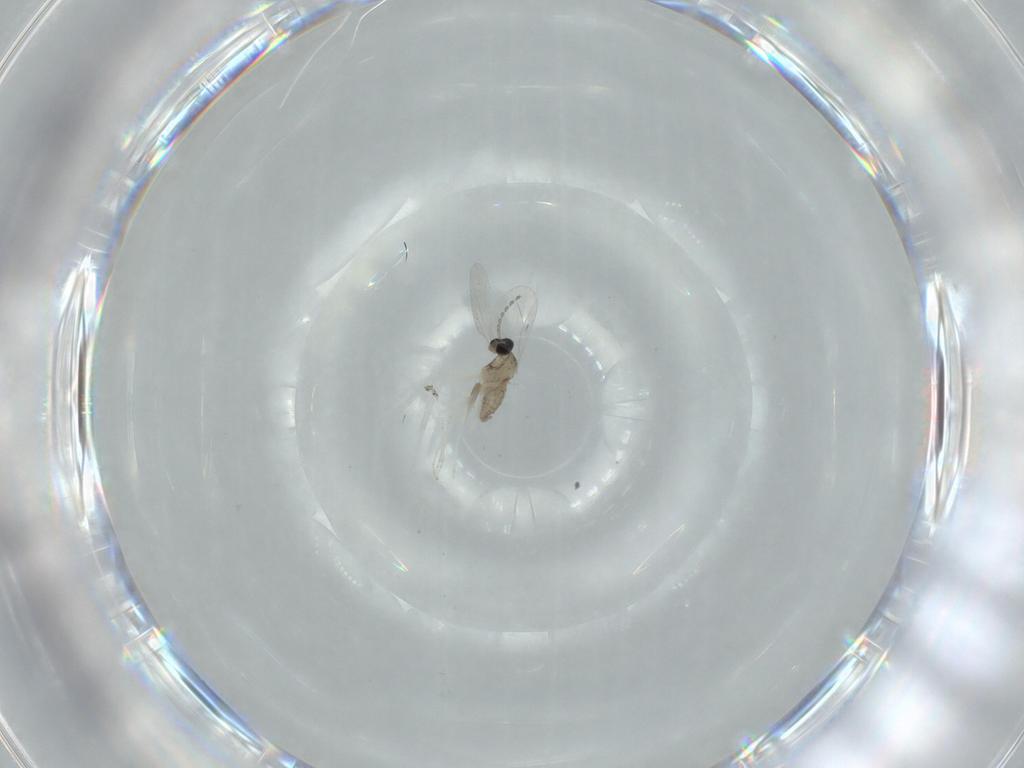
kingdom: Animalia
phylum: Arthropoda
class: Insecta
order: Diptera
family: Cecidomyiidae
